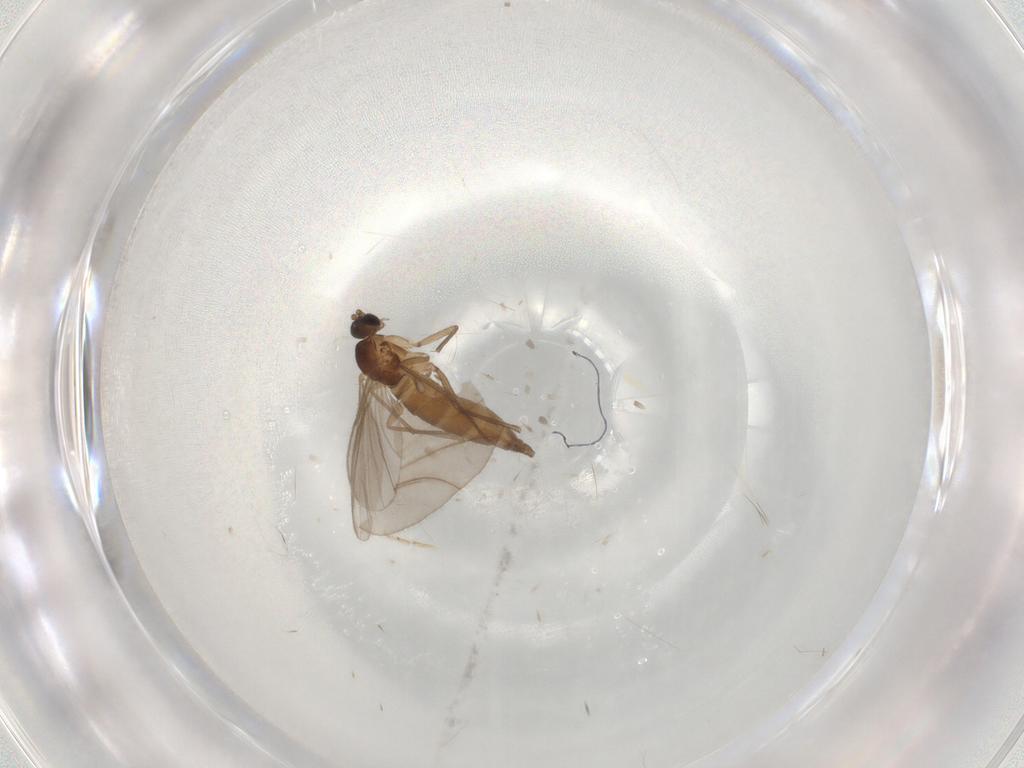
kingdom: Animalia
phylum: Arthropoda
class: Insecta
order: Diptera
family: Sciaridae
